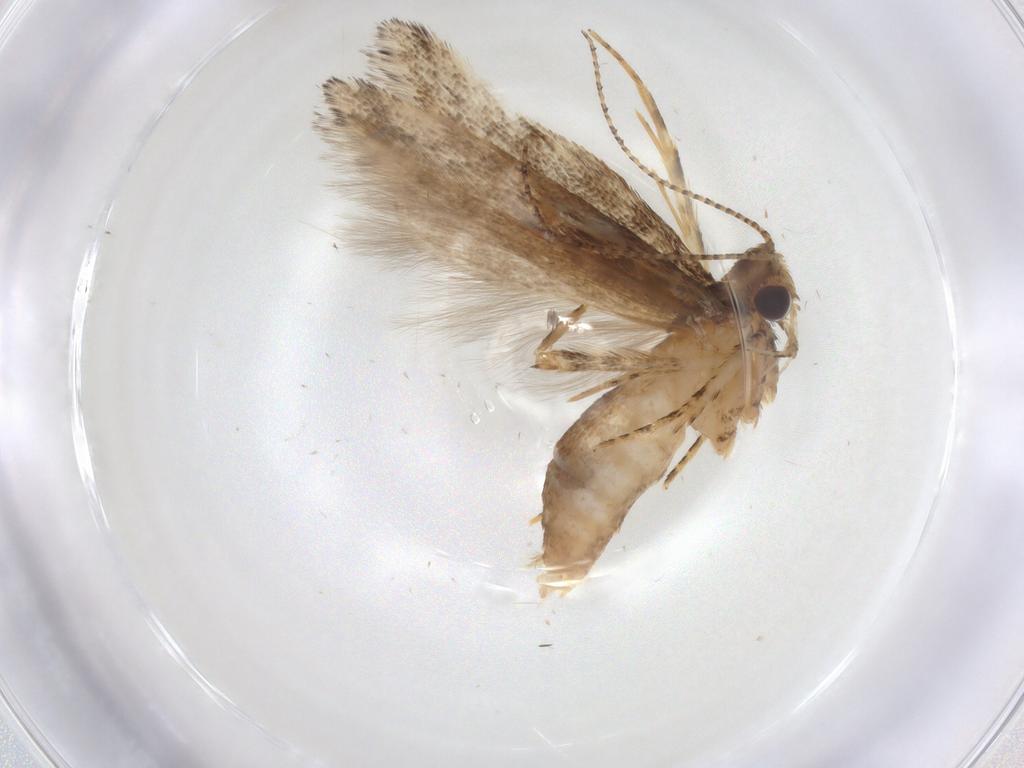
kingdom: Animalia
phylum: Arthropoda
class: Insecta
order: Lepidoptera
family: Gelechiidae
